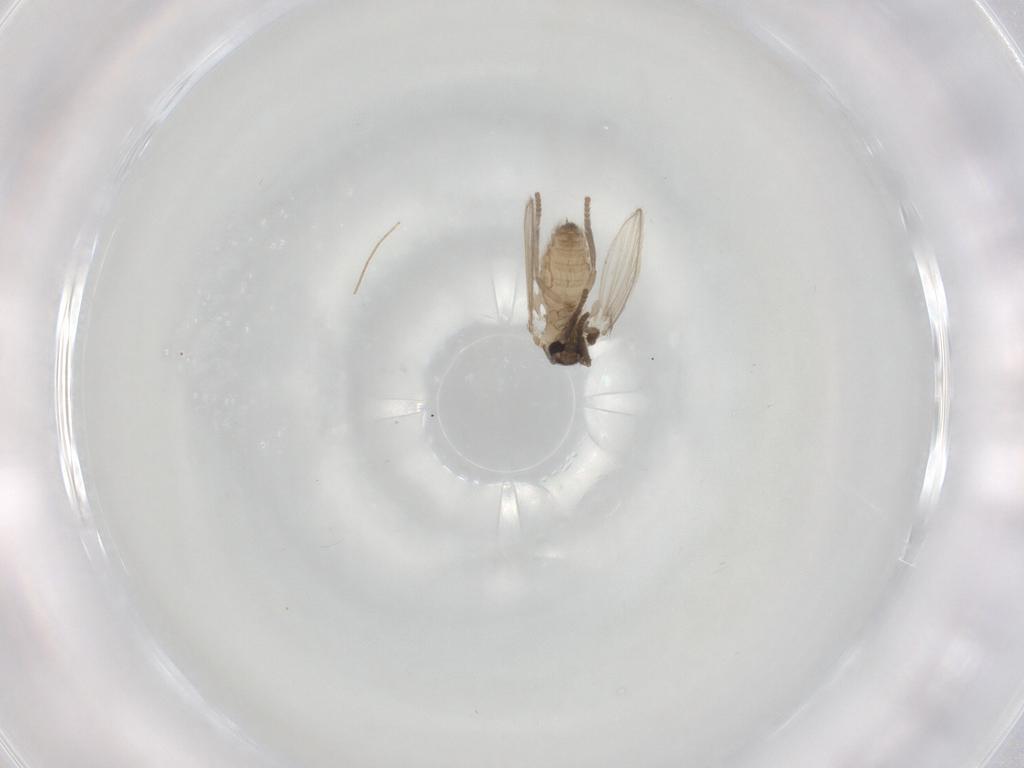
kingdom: Animalia
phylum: Arthropoda
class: Insecta
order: Diptera
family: Psychodidae
